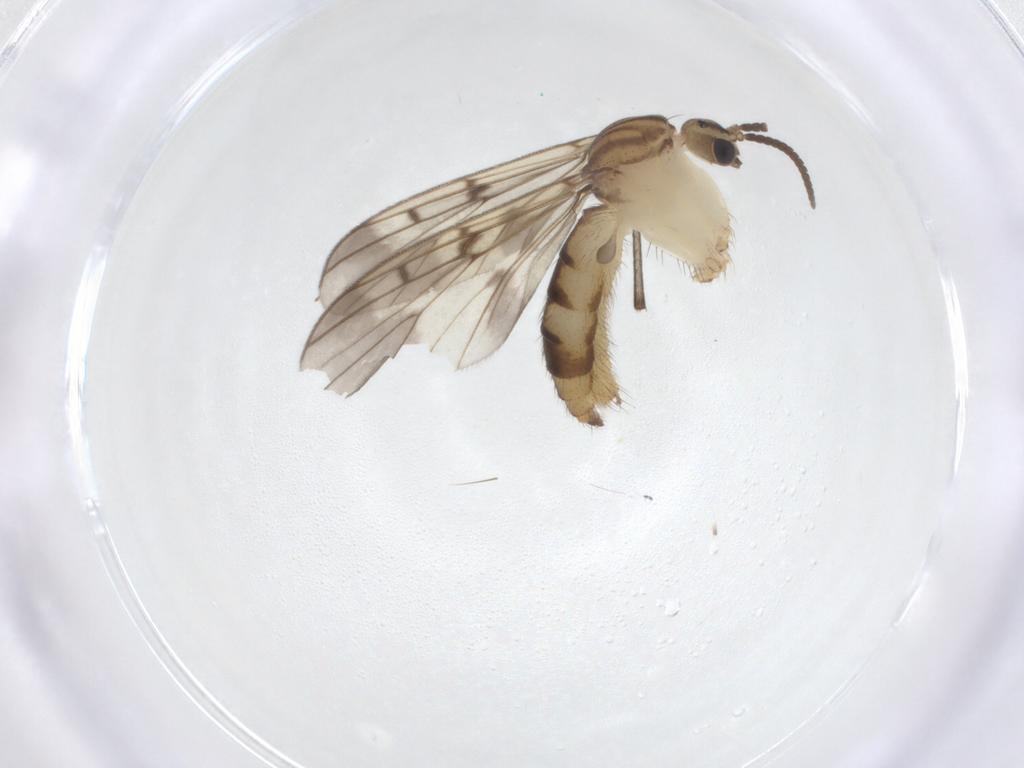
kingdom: Animalia
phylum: Arthropoda
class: Insecta
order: Diptera
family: Mycetophilidae
